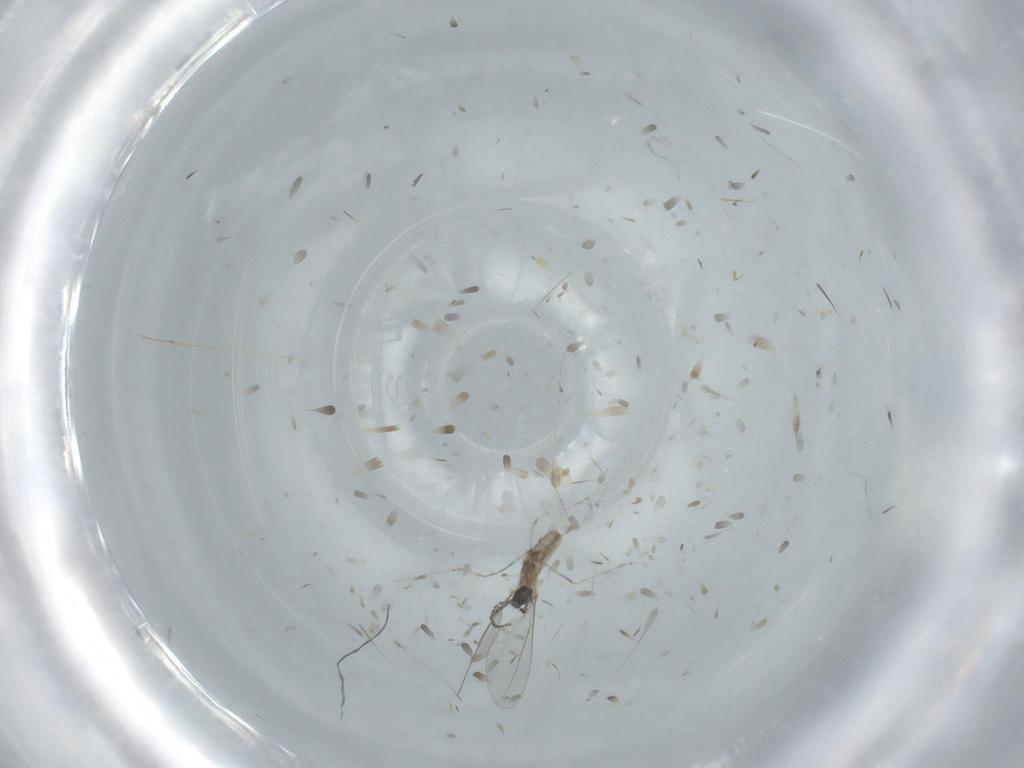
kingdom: Animalia
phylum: Arthropoda
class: Insecta
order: Diptera
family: Cecidomyiidae
